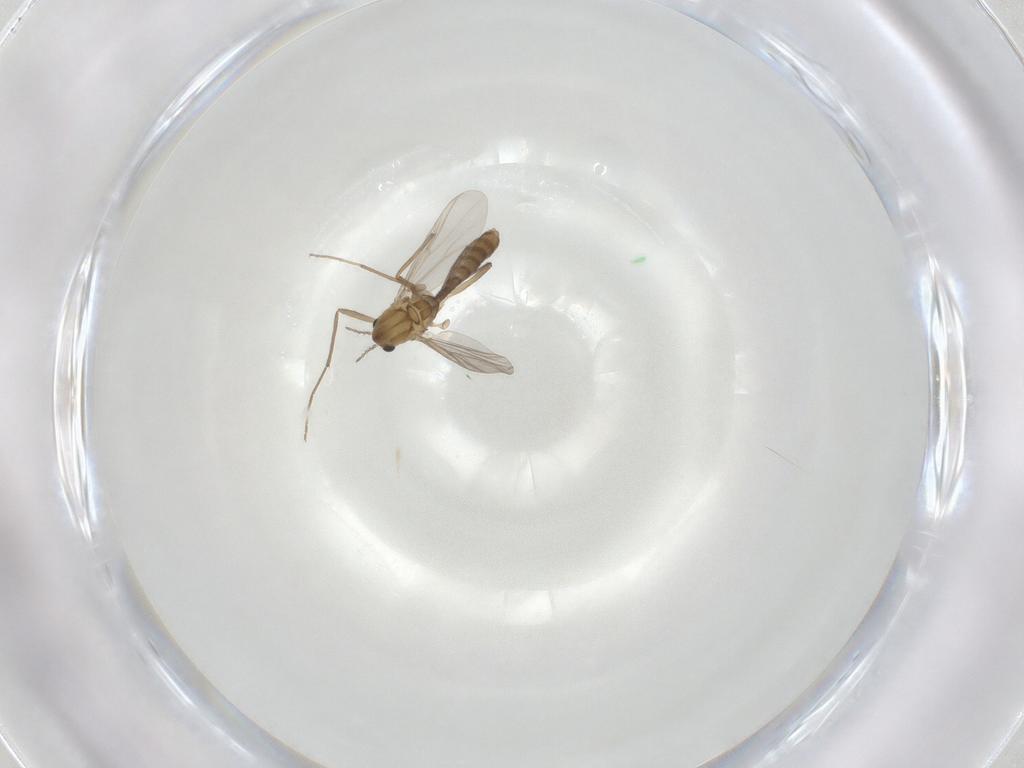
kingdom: Animalia
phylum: Arthropoda
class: Insecta
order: Diptera
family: Chironomidae
